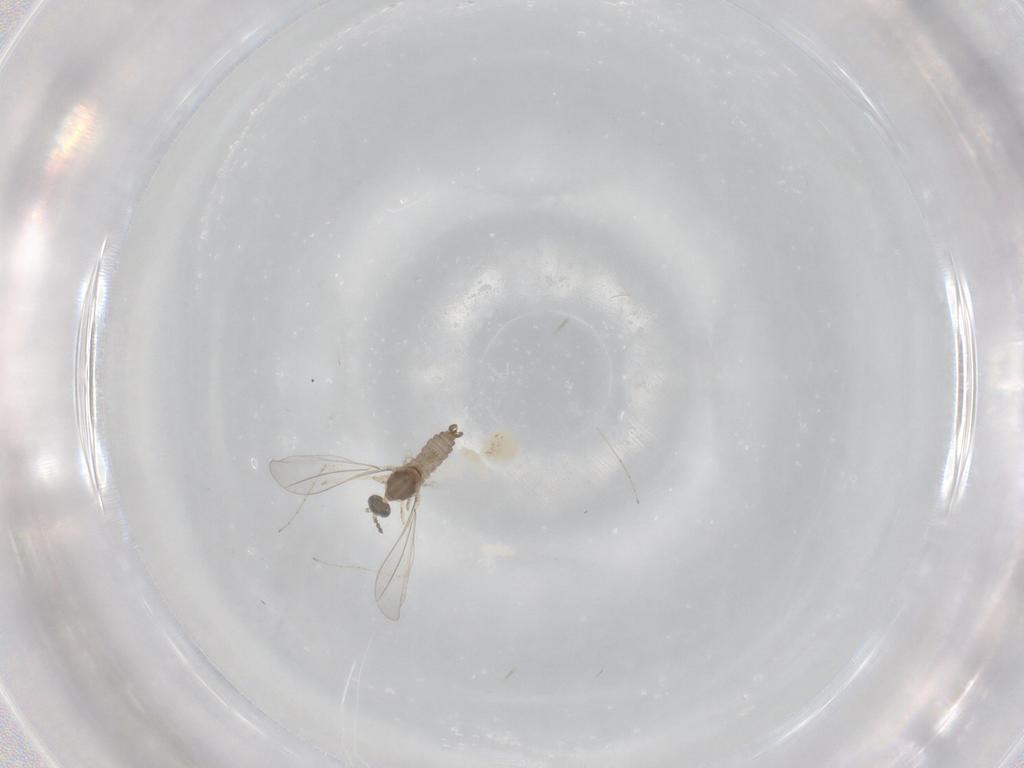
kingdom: Animalia
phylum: Arthropoda
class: Insecta
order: Diptera
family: Cecidomyiidae
